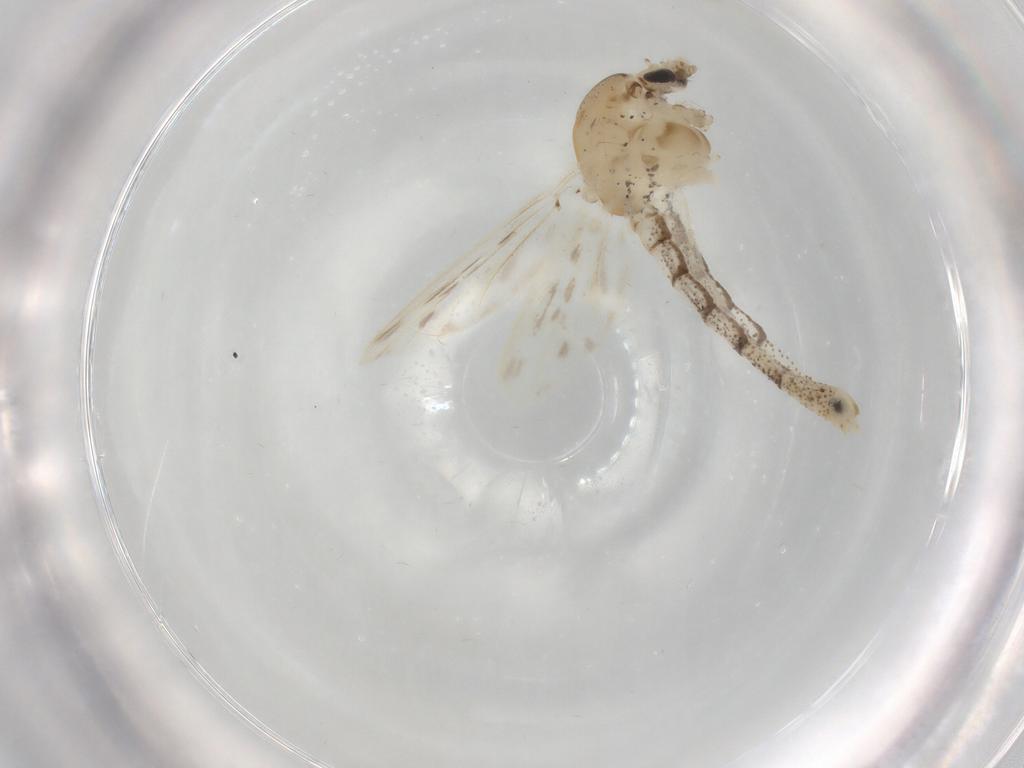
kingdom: Animalia
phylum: Arthropoda
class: Insecta
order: Diptera
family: Chaoboridae
